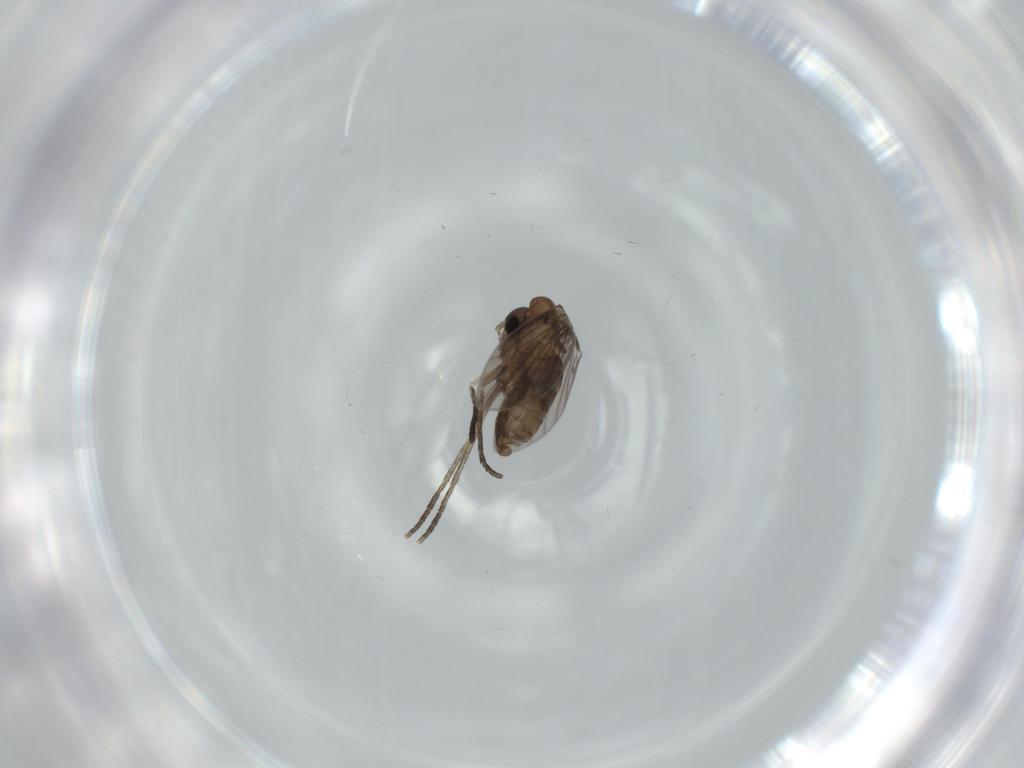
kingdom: Animalia
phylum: Arthropoda
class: Insecta
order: Diptera
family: Psychodidae
